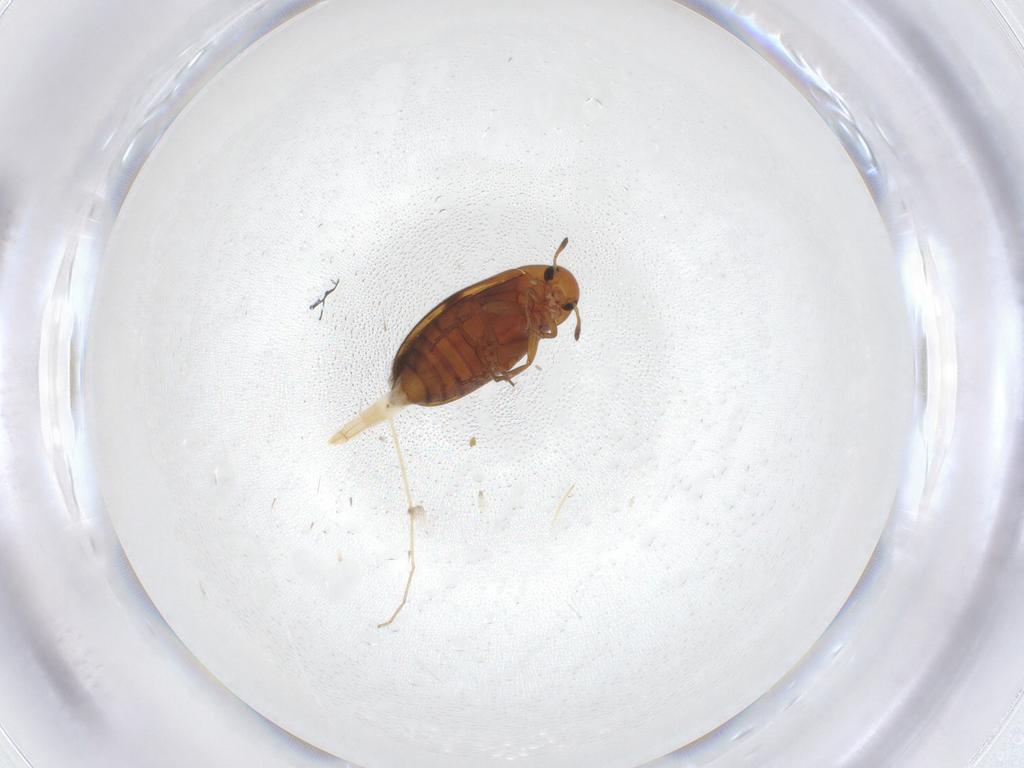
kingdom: Animalia
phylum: Arthropoda
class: Insecta
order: Coleoptera
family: Scraptiidae
